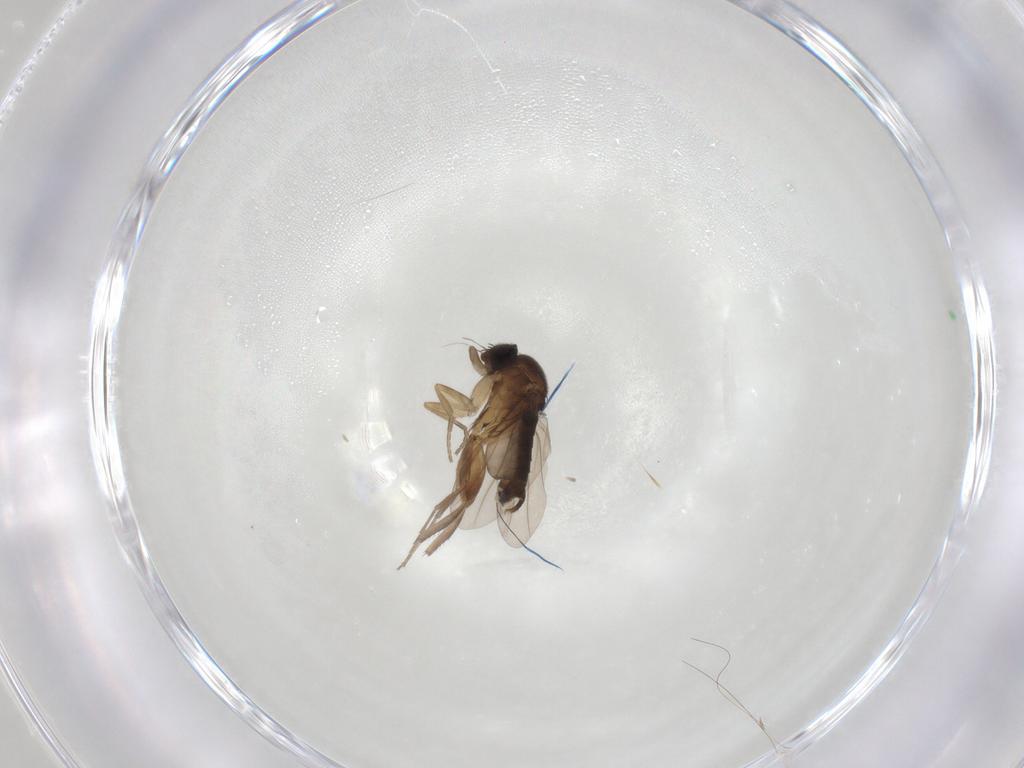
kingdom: Animalia
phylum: Arthropoda
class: Insecta
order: Diptera
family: Phoridae
